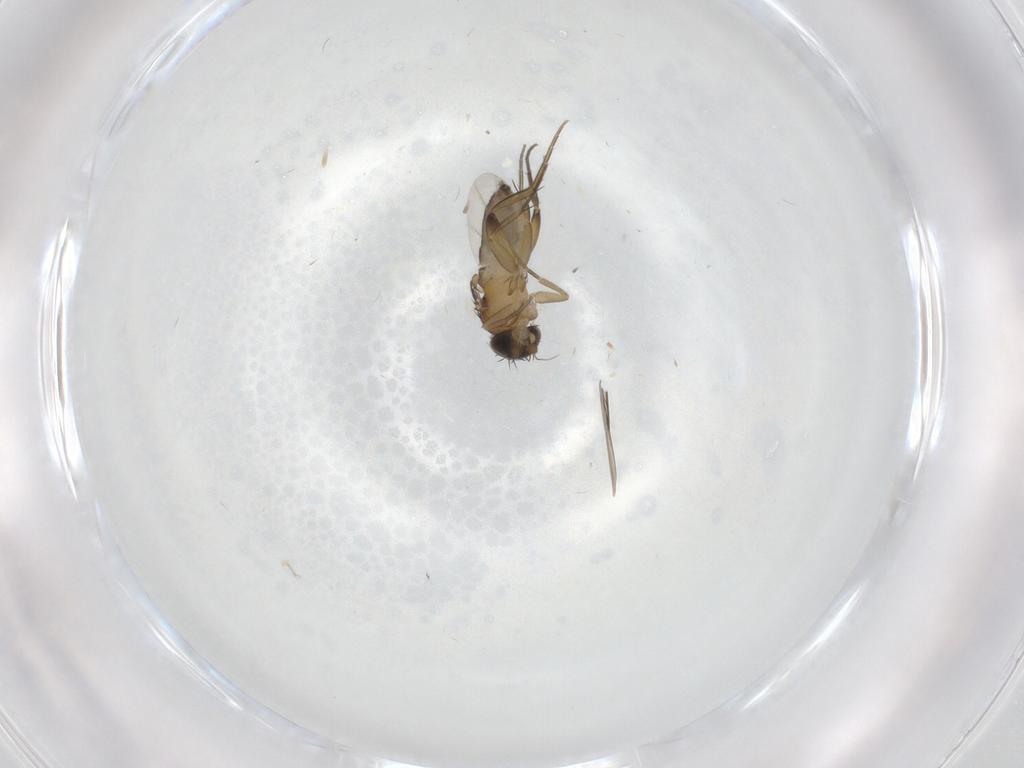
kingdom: Animalia
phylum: Arthropoda
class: Insecta
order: Diptera
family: Phoridae
